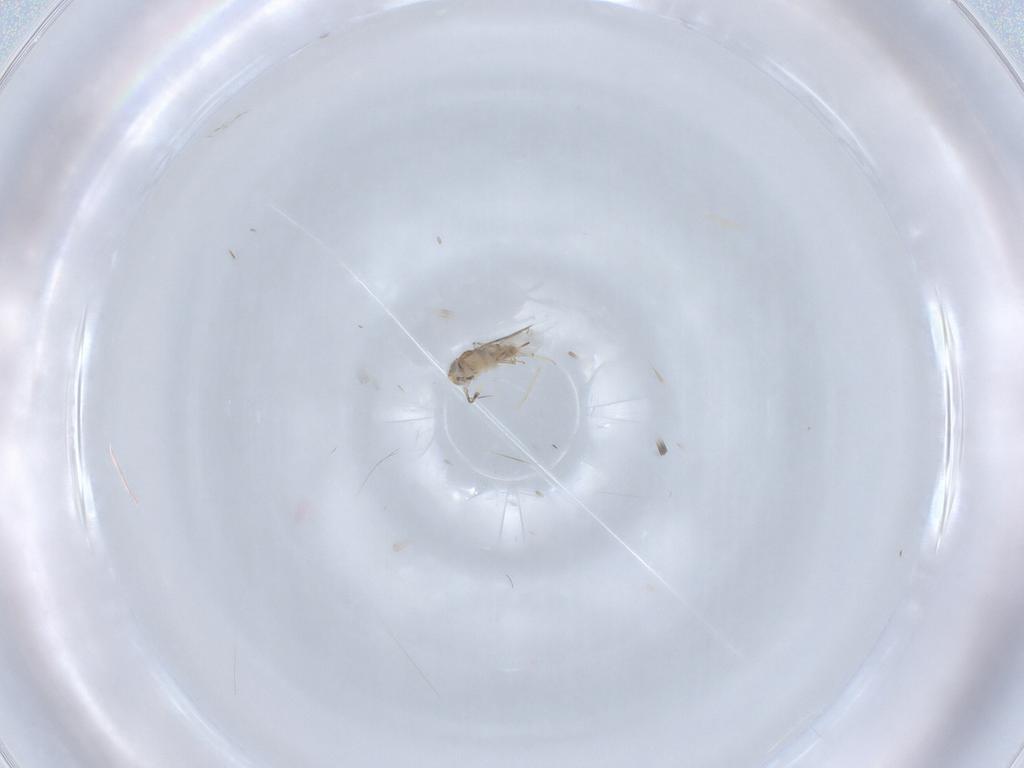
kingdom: Animalia
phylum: Arthropoda
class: Insecta
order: Hymenoptera
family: Encyrtidae
